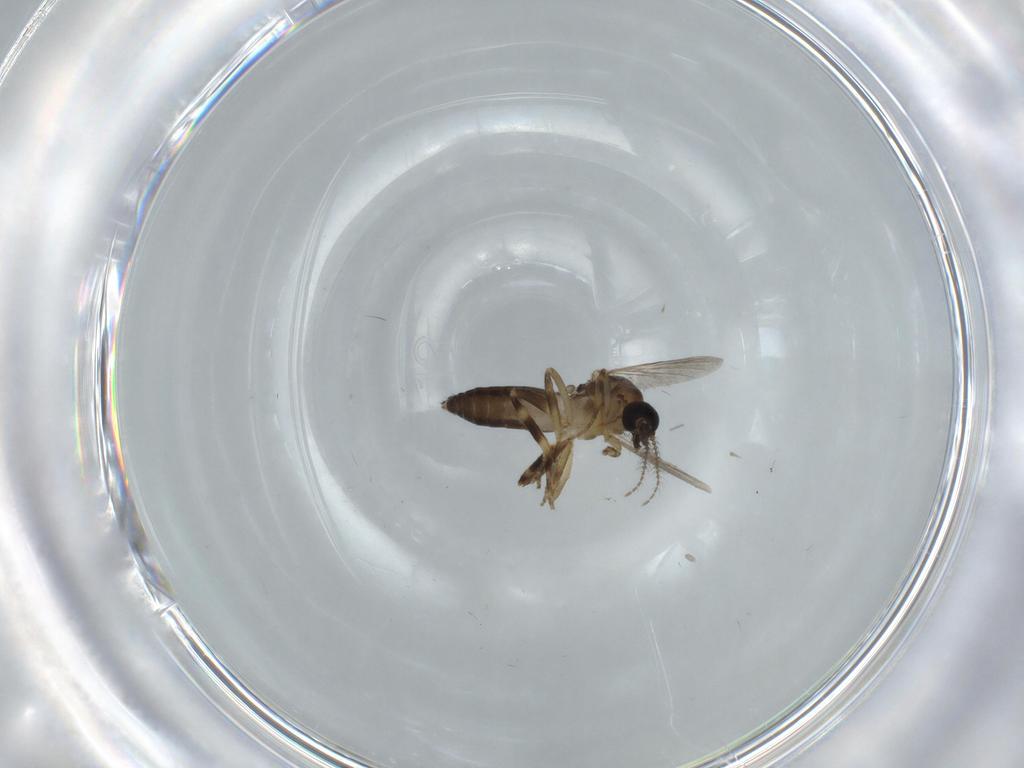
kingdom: Animalia
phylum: Arthropoda
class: Insecta
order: Diptera
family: Ceratopogonidae
